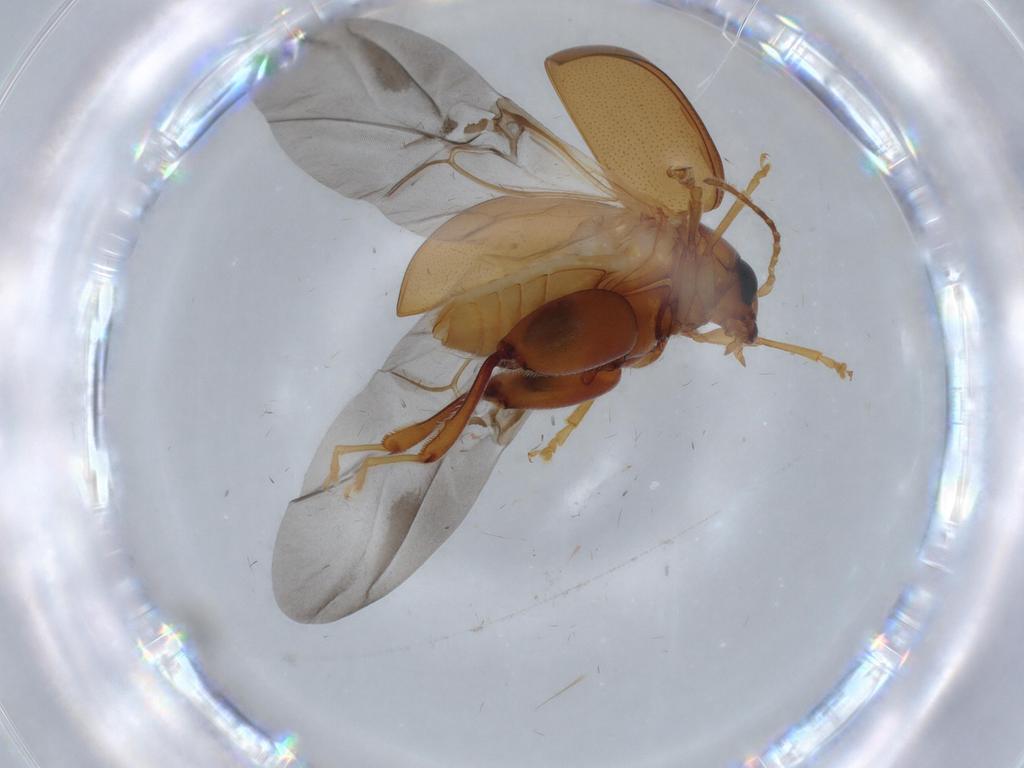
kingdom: Animalia
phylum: Arthropoda
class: Insecta
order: Coleoptera
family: Chrysomelidae
